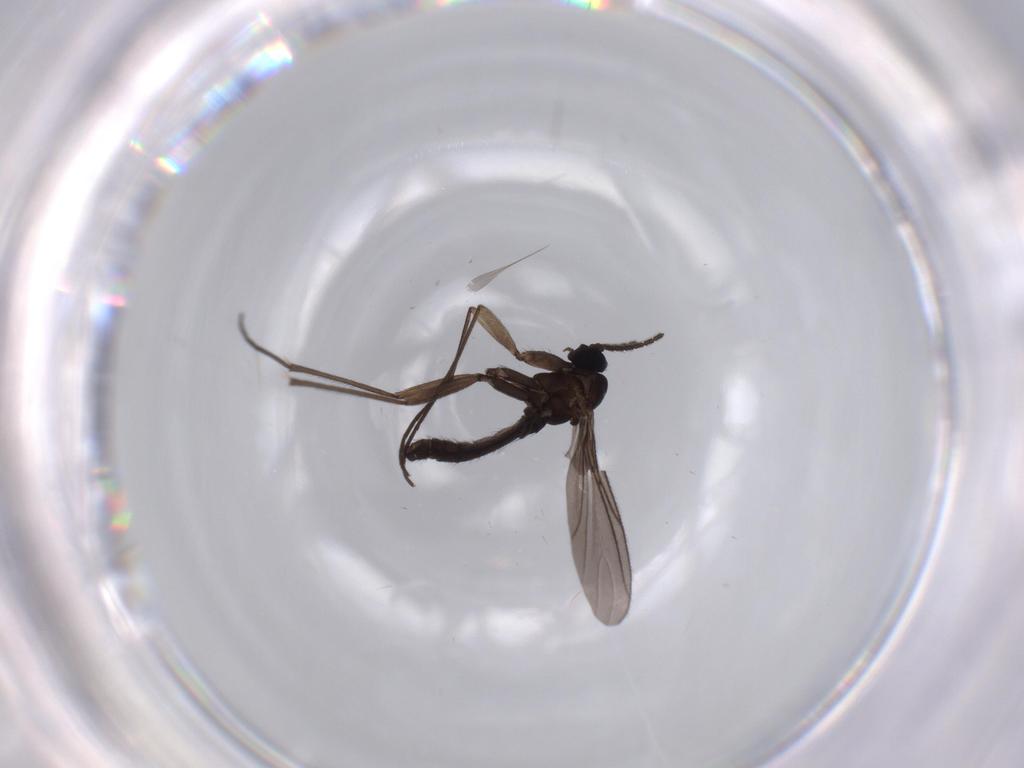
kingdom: Animalia
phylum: Arthropoda
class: Insecta
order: Diptera
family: Sciaridae
